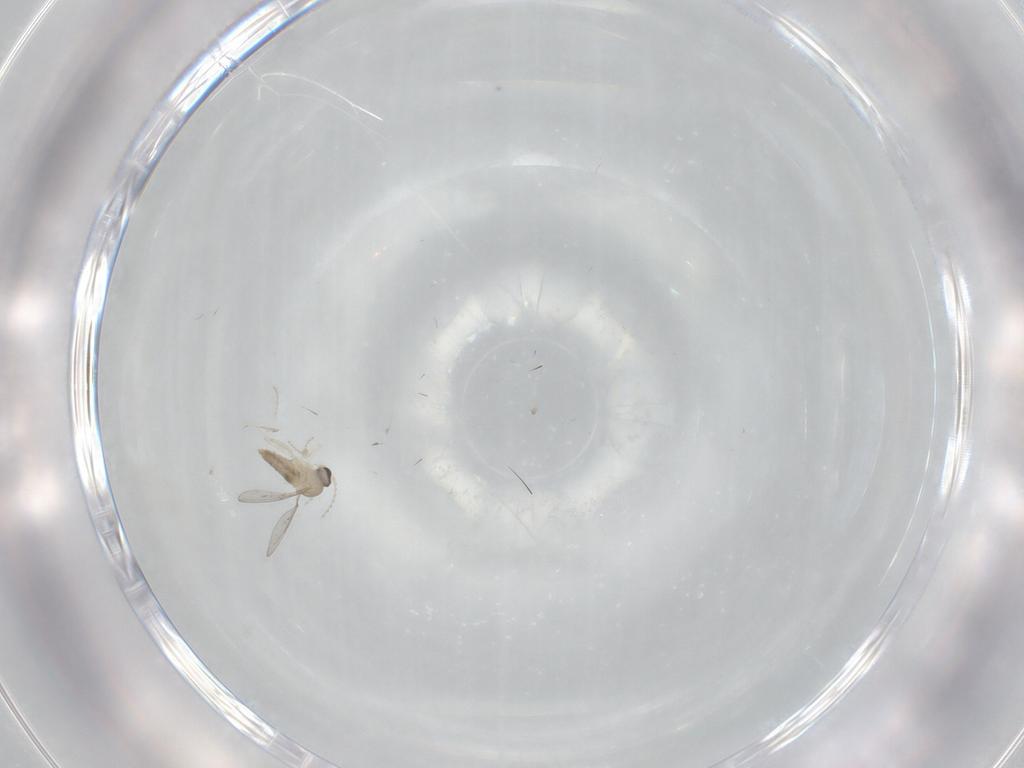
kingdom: Animalia
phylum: Arthropoda
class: Insecta
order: Diptera
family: Cecidomyiidae
